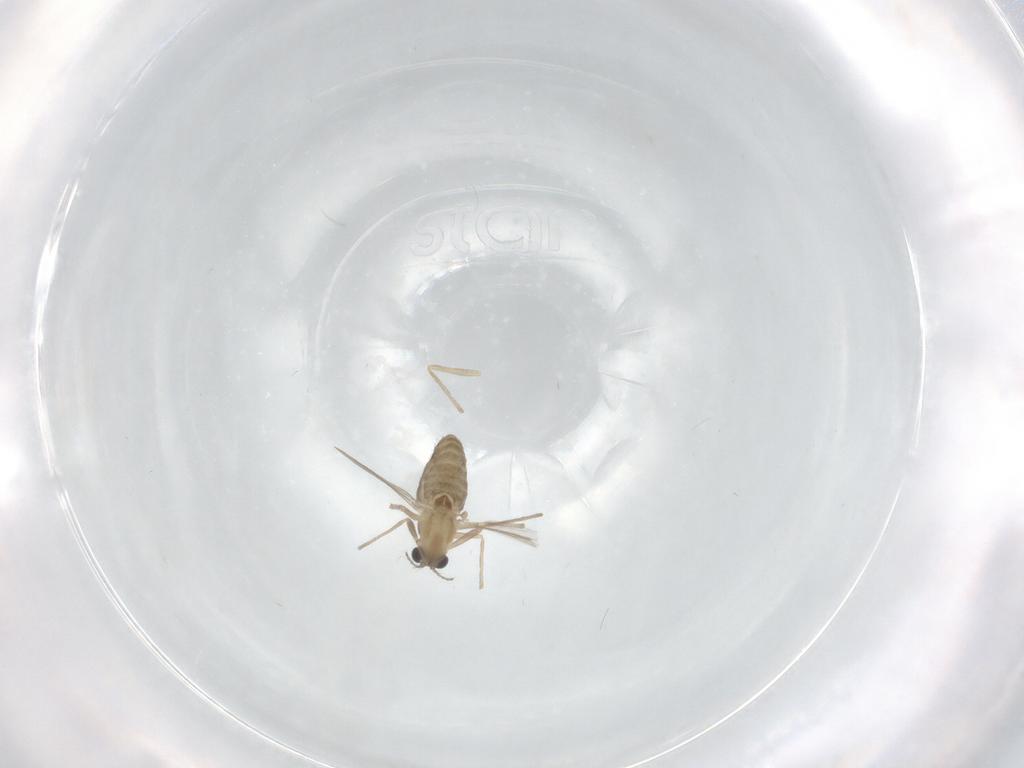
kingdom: Animalia
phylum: Arthropoda
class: Insecta
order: Diptera
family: Chironomidae
